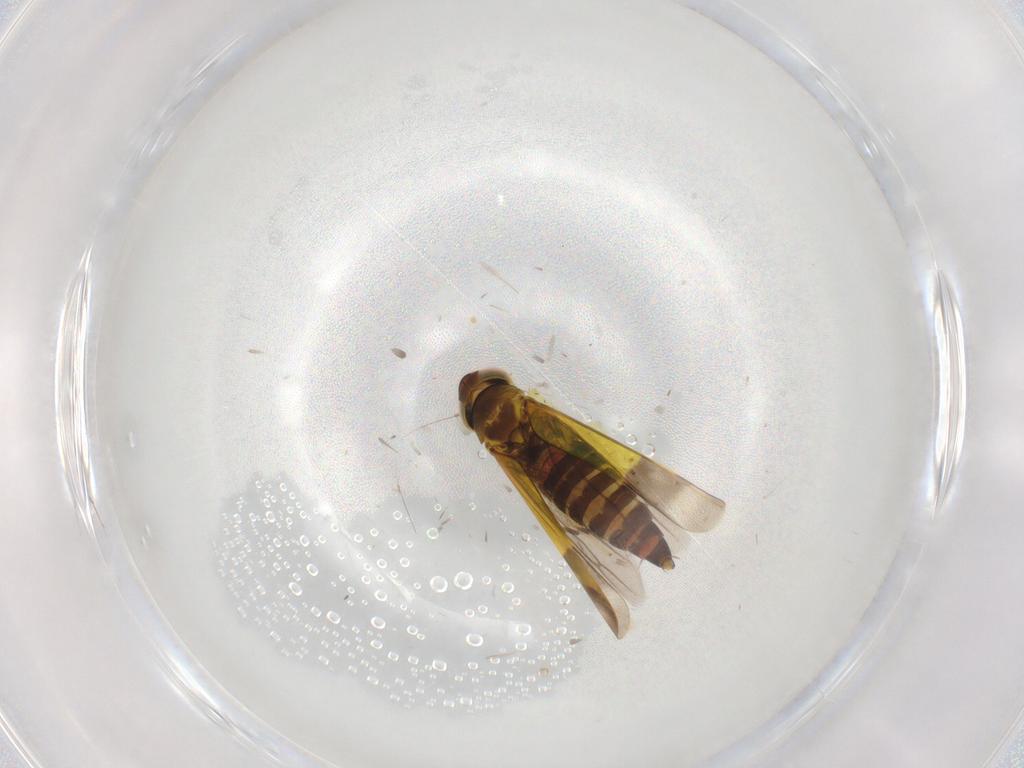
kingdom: Animalia
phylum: Arthropoda
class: Insecta
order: Hemiptera
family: Cicadellidae
